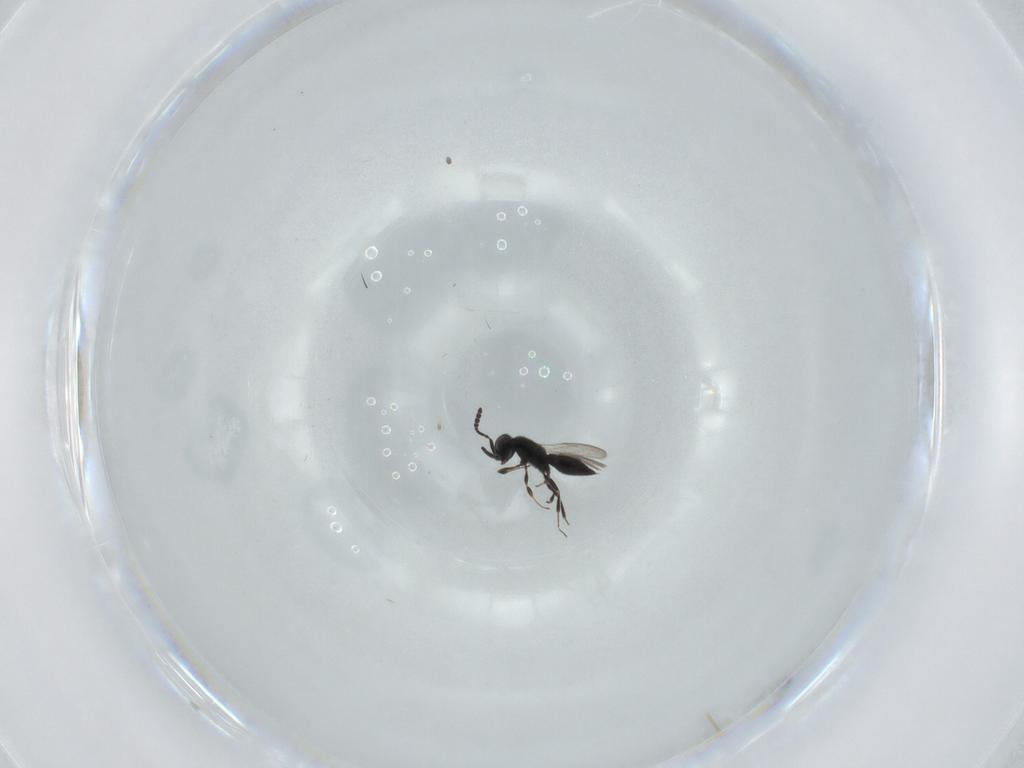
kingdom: Animalia
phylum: Arthropoda
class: Insecta
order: Hymenoptera
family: Scelionidae
